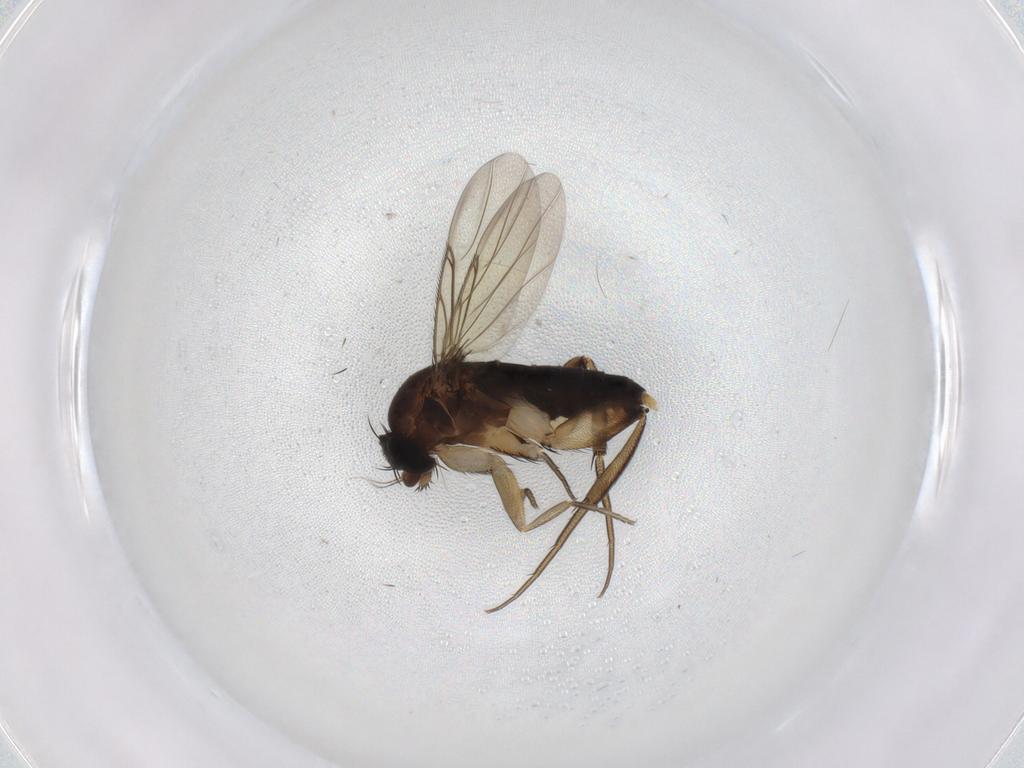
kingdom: Animalia
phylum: Arthropoda
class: Insecta
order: Diptera
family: Phoridae
